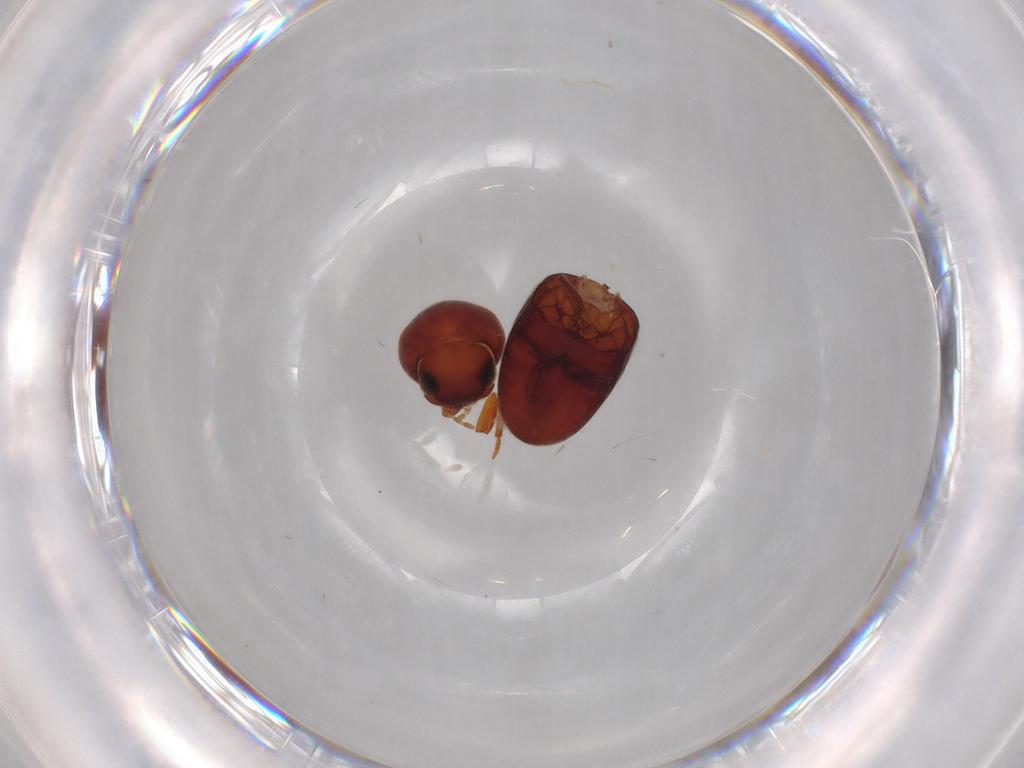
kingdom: Animalia
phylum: Arthropoda
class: Insecta
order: Coleoptera
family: Ptinidae
